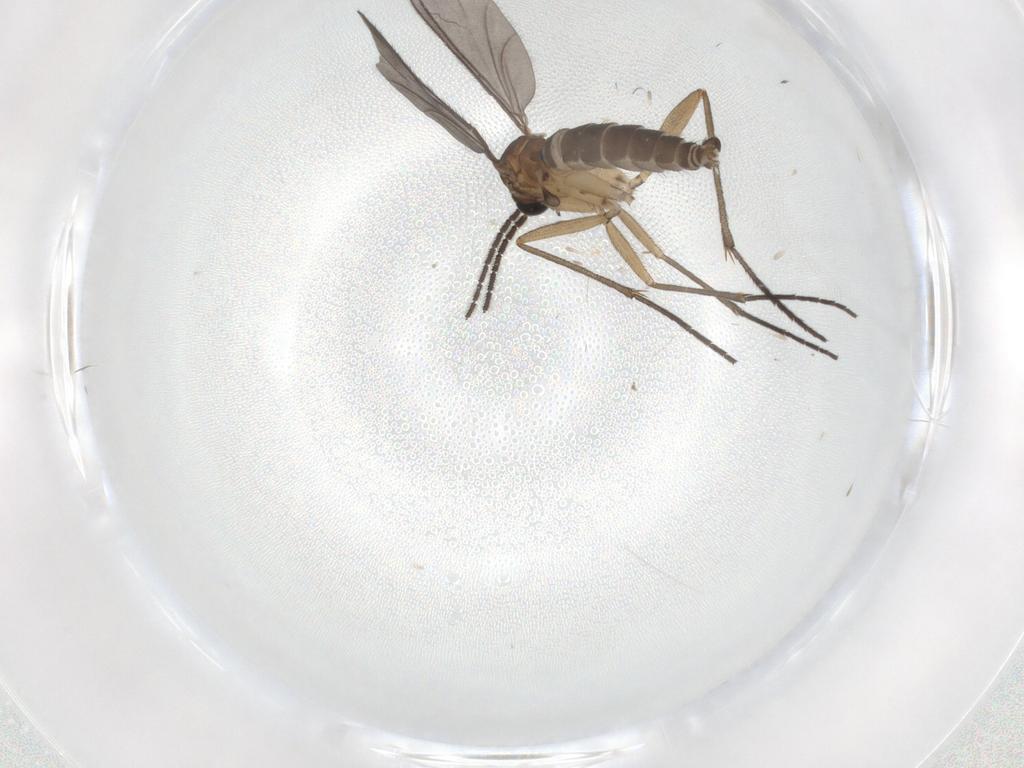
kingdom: Animalia
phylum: Arthropoda
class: Insecta
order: Diptera
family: Sciaridae
